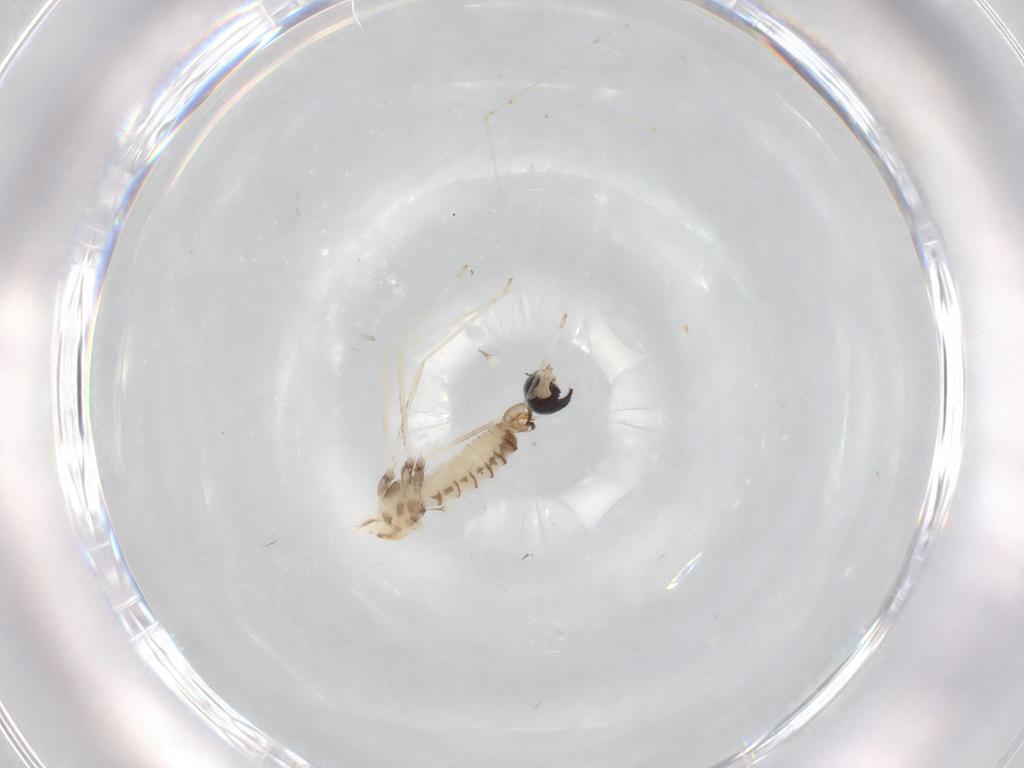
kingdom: Animalia
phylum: Arthropoda
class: Insecta
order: Diptera
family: Cecidomyiidae
